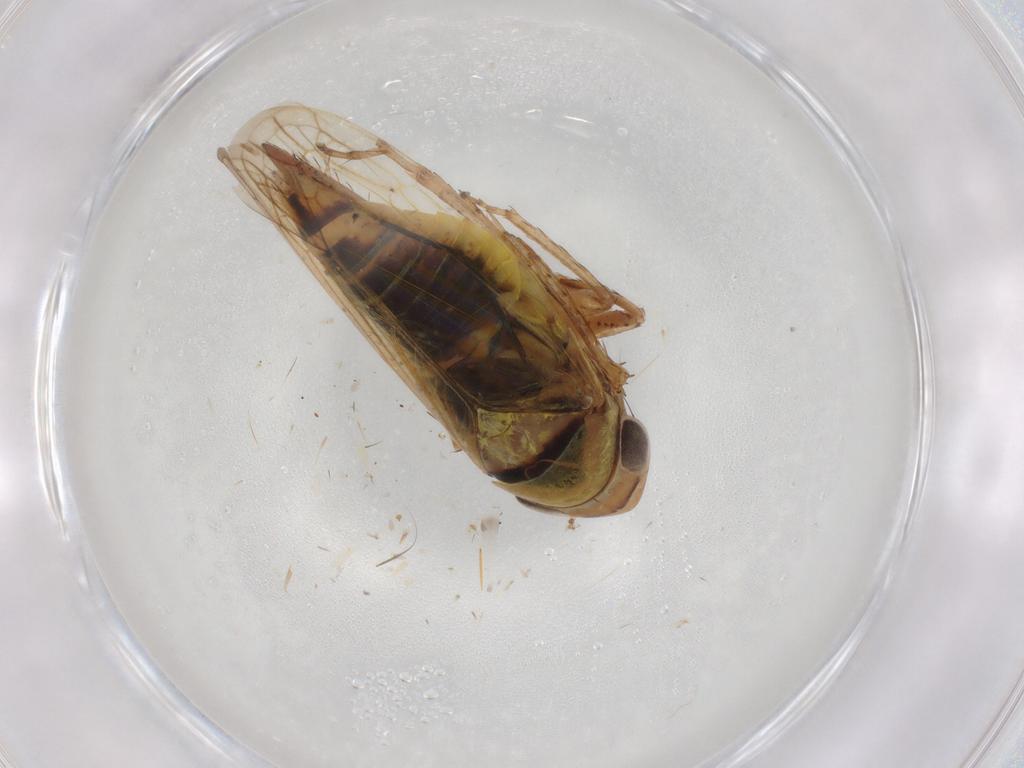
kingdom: Animalia
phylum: Arthropoda
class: Insecta
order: Hemiptera
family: Cicadellidae
